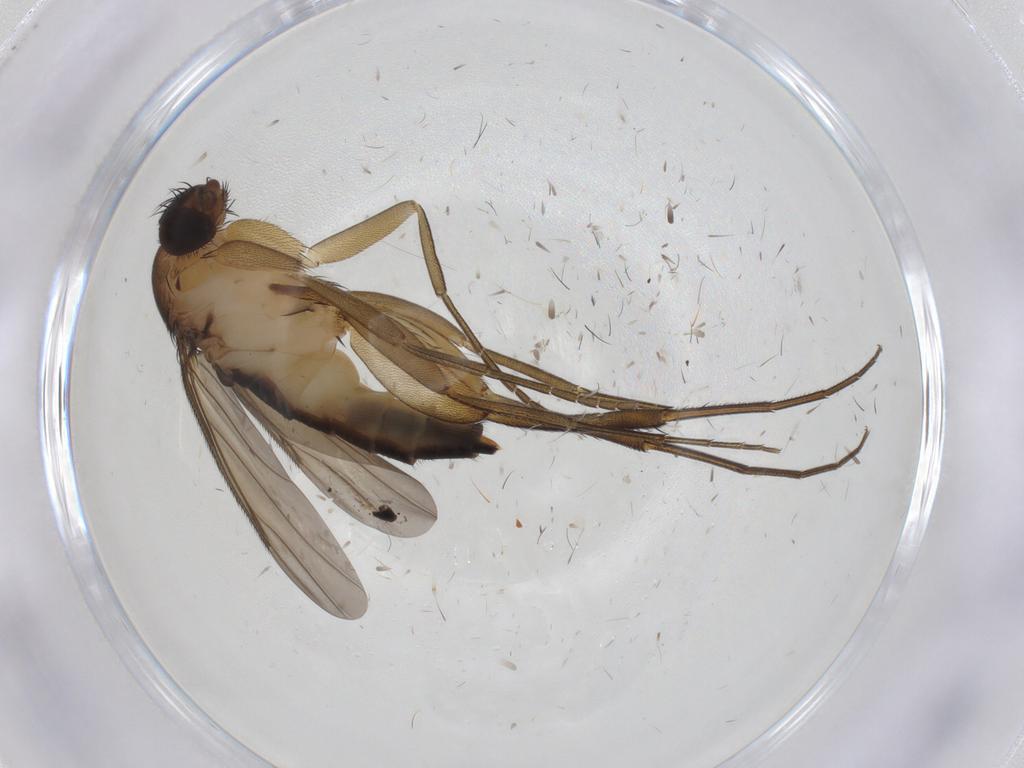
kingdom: Animalia
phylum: Arthropoda
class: Insecta
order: Diptera
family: Phoridae
